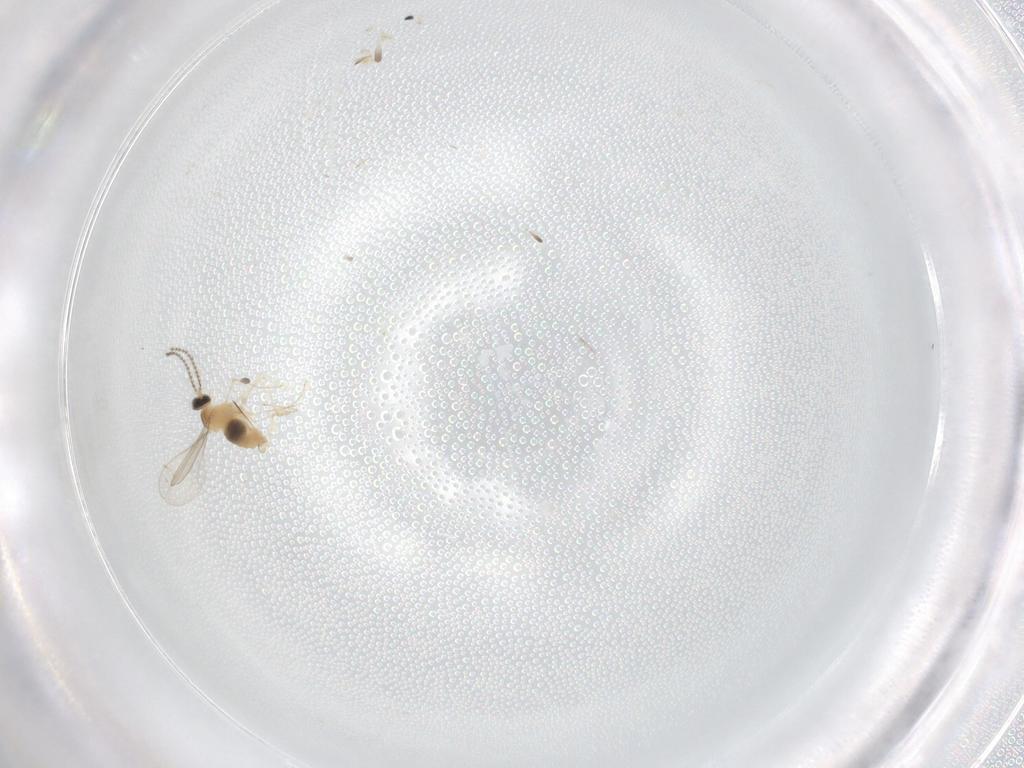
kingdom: Animalia
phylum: Arthropoda
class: Insecta
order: Diptera
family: Cecidomyiidae
